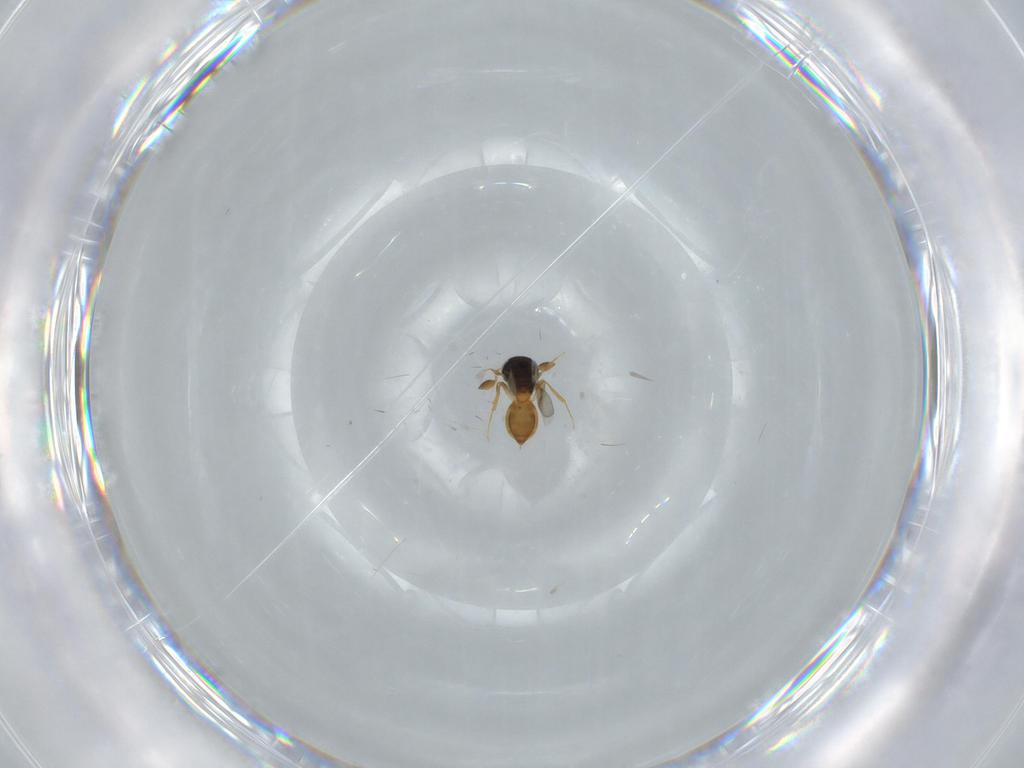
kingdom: Animalia
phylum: Arthropoda
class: Insecta
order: Hymenoptera
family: Scelionidae
